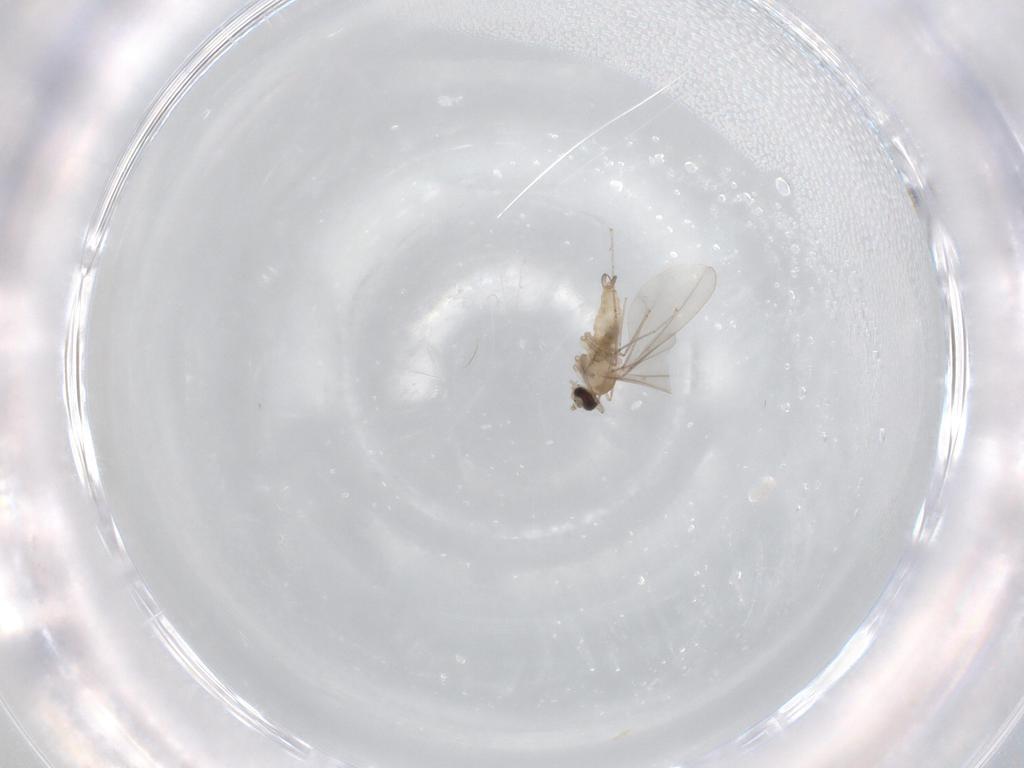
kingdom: Animalia
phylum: Arthropoda
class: Insecta
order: Diptera
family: Cecidomyiidae
